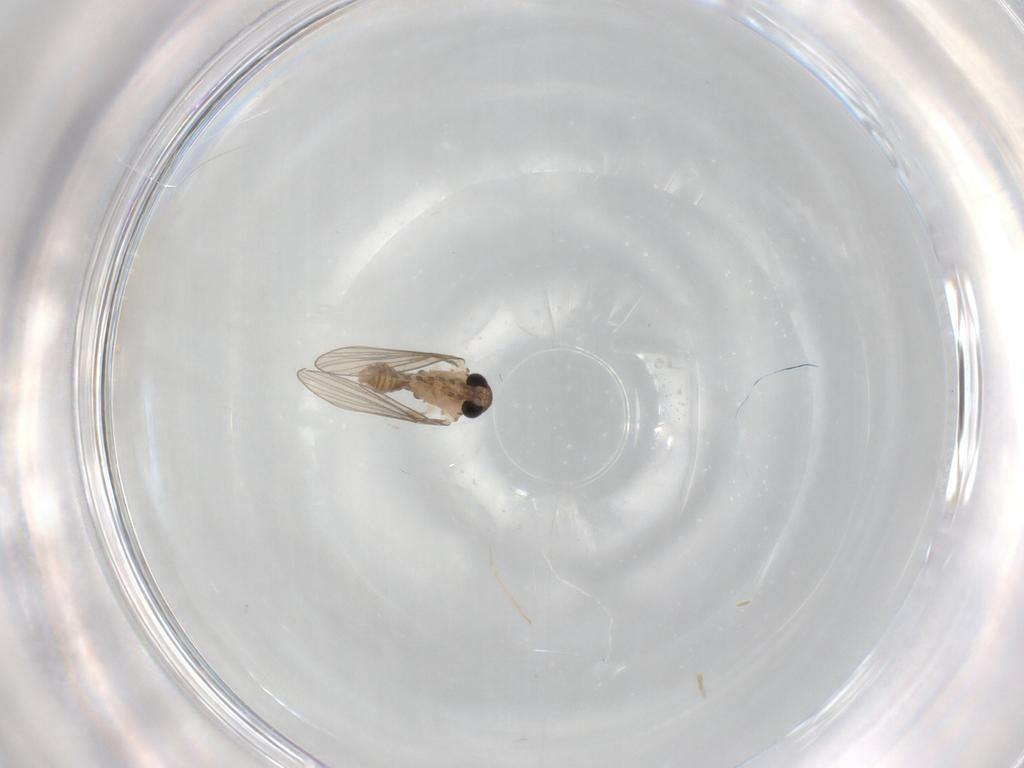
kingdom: Animalia
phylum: Arthropoda
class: Insecta
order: Diptera
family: Psychodidae
